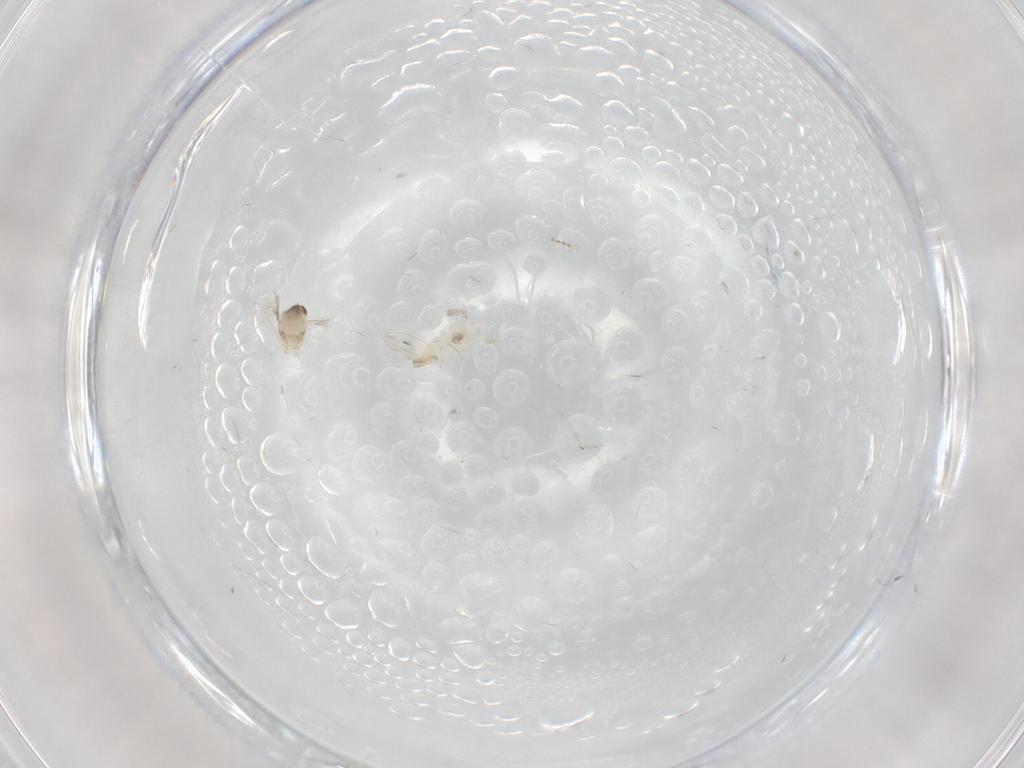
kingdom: Animalia
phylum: Arthropoda
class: Insecta
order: Diptera
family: Cecidomyiidae
